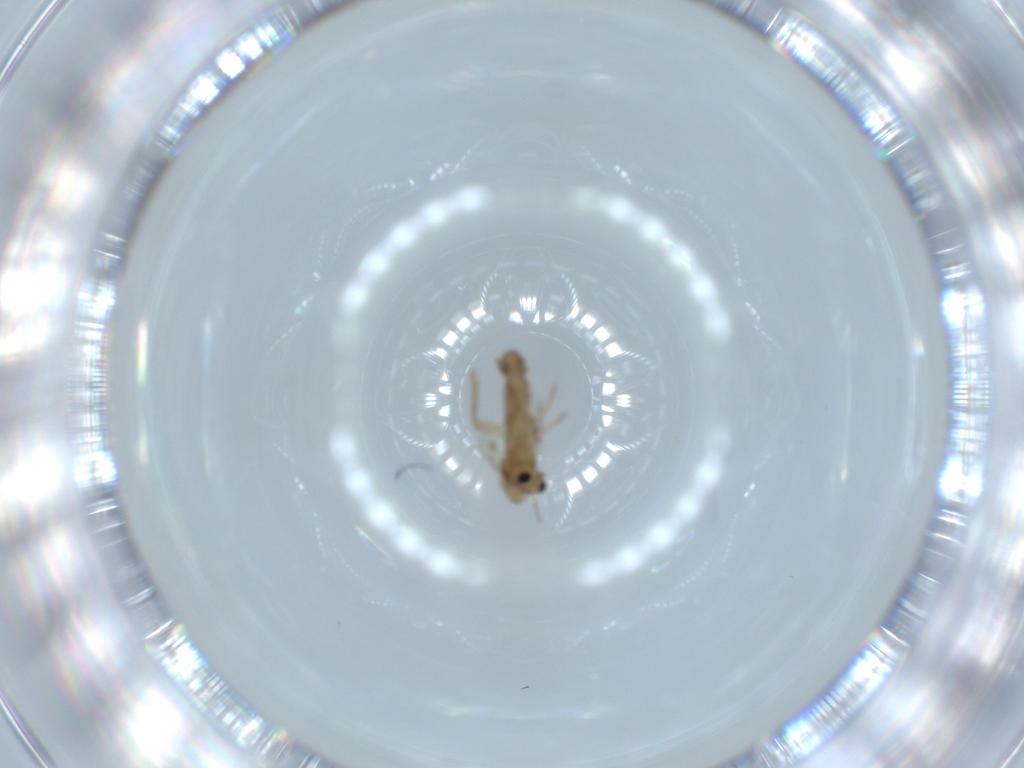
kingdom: Animalia
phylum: Arthropoda
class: Insecta
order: Diptera
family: Chironomidae
